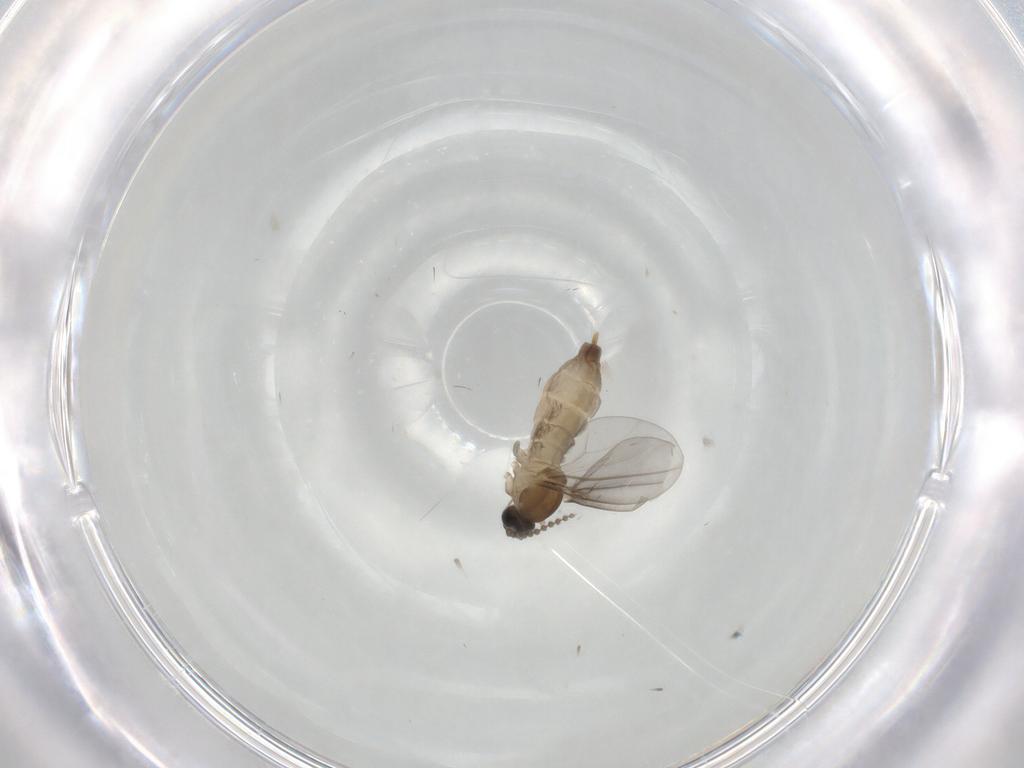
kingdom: Animalia
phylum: Arthropoda
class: Insecta
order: Diptera
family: Cecidomyiidae
